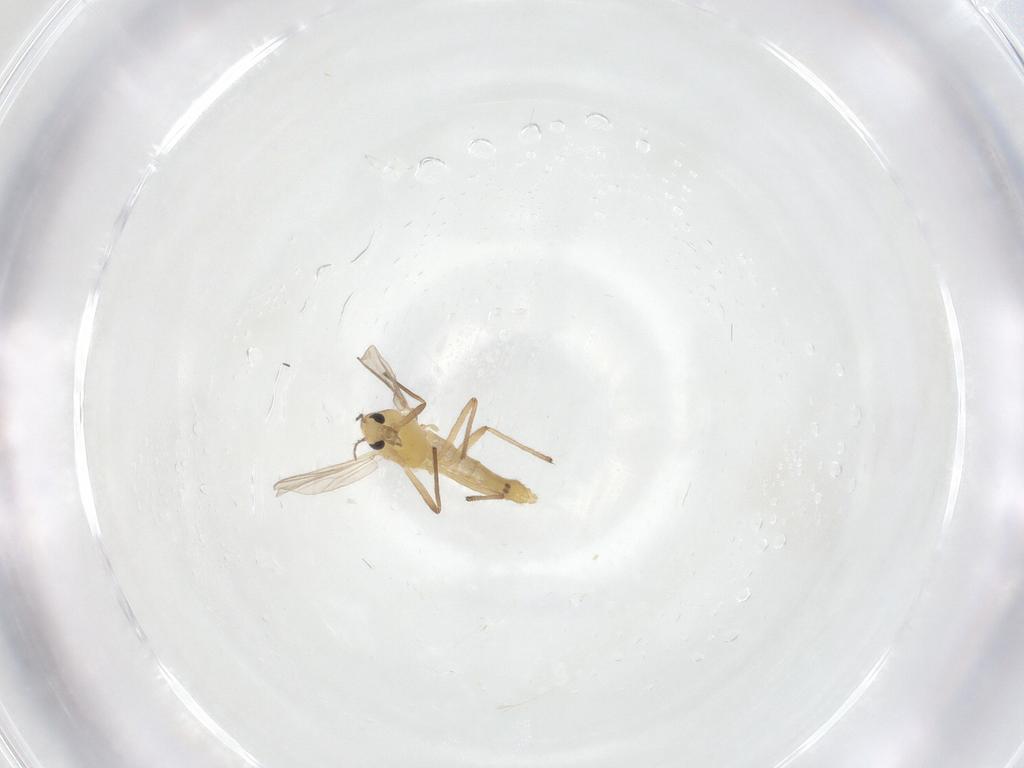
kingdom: Animalia
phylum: Arthropoda
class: Insecta
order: Diptera
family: Chironomidae
